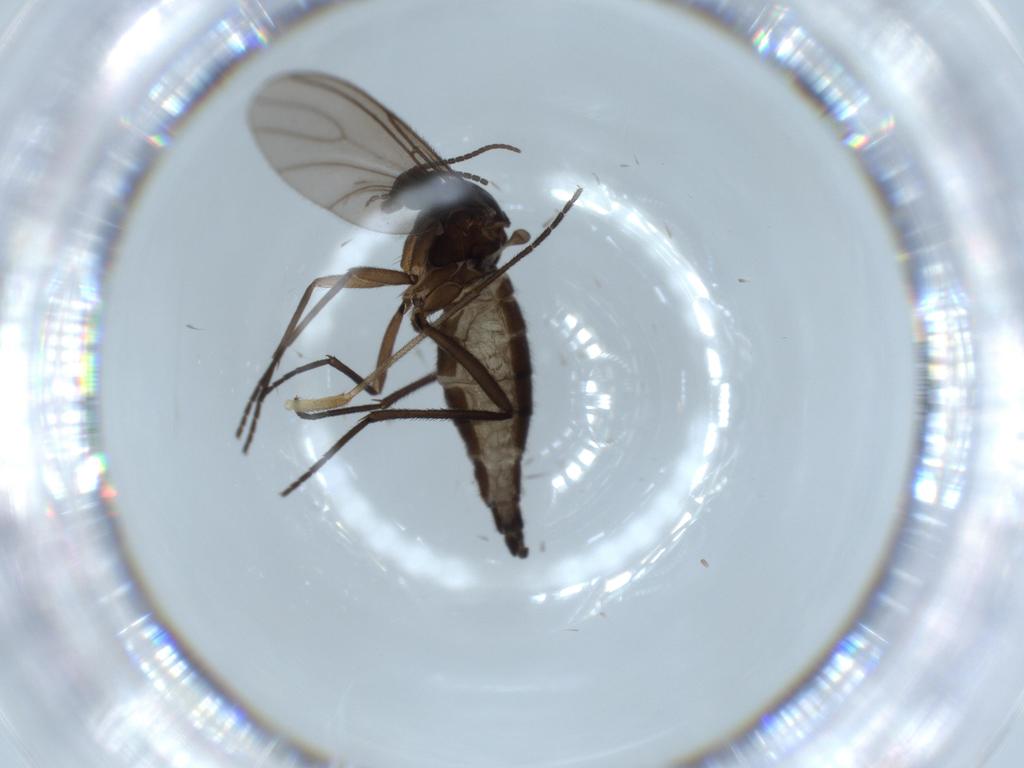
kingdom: Animalia
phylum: Arthropoda
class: Insecta
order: Diptera
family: Sciaridae
